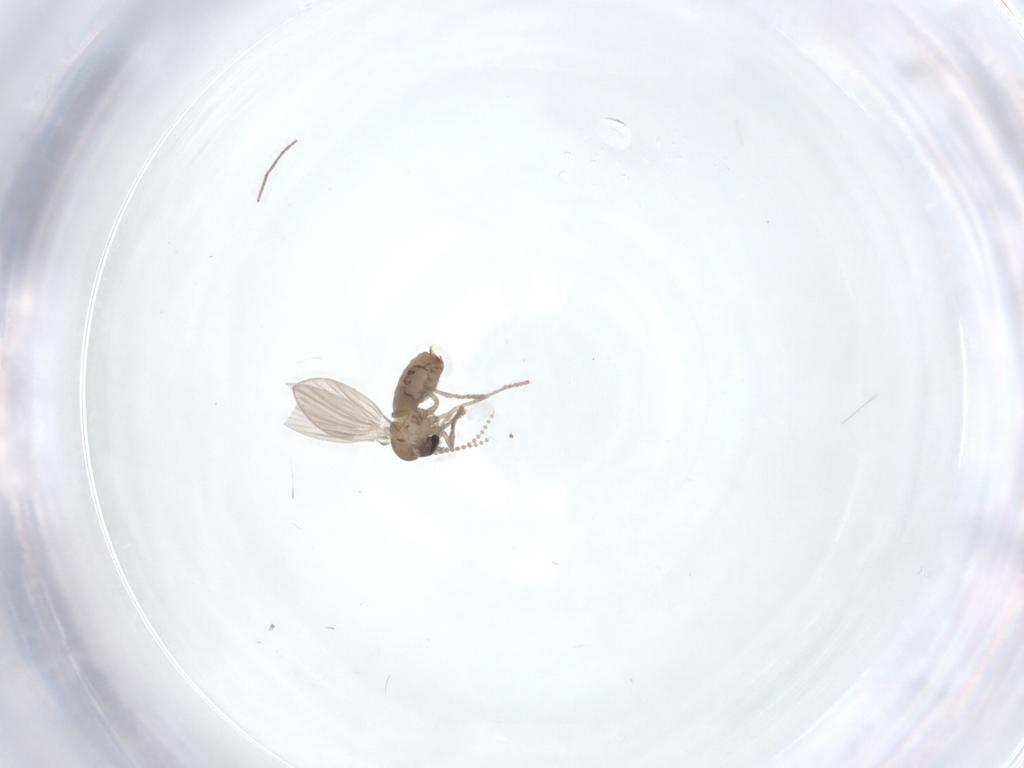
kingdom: Animalia
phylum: Arthropoda
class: Insecta
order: Diptera
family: Chironomidae
